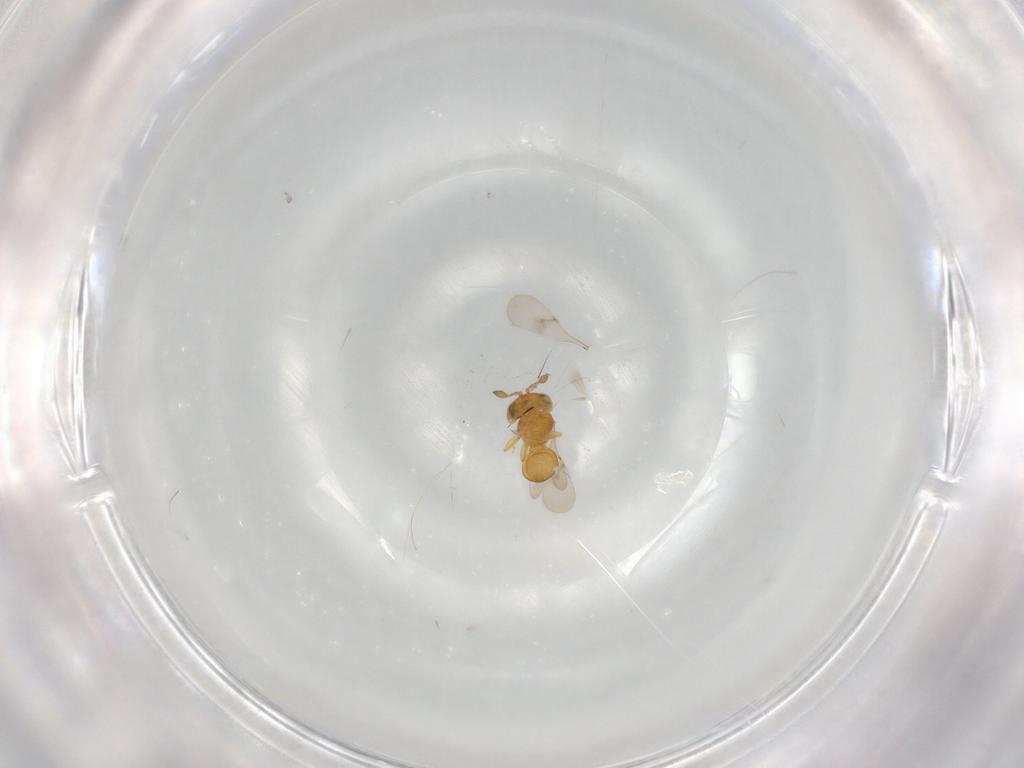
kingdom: Animalia
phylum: Arthropoda
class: Insecta
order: Hymenoptera
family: Scelionidae
